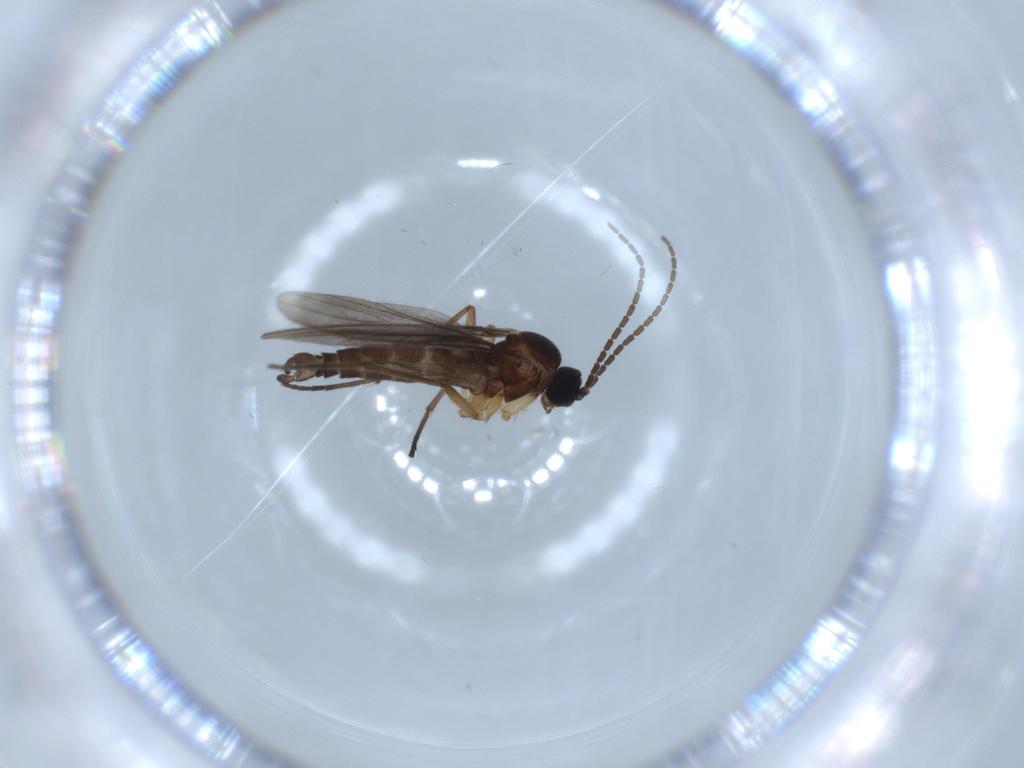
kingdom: Animalia
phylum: Arthropoda
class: Insecta
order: Diptera
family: Sciaridae
